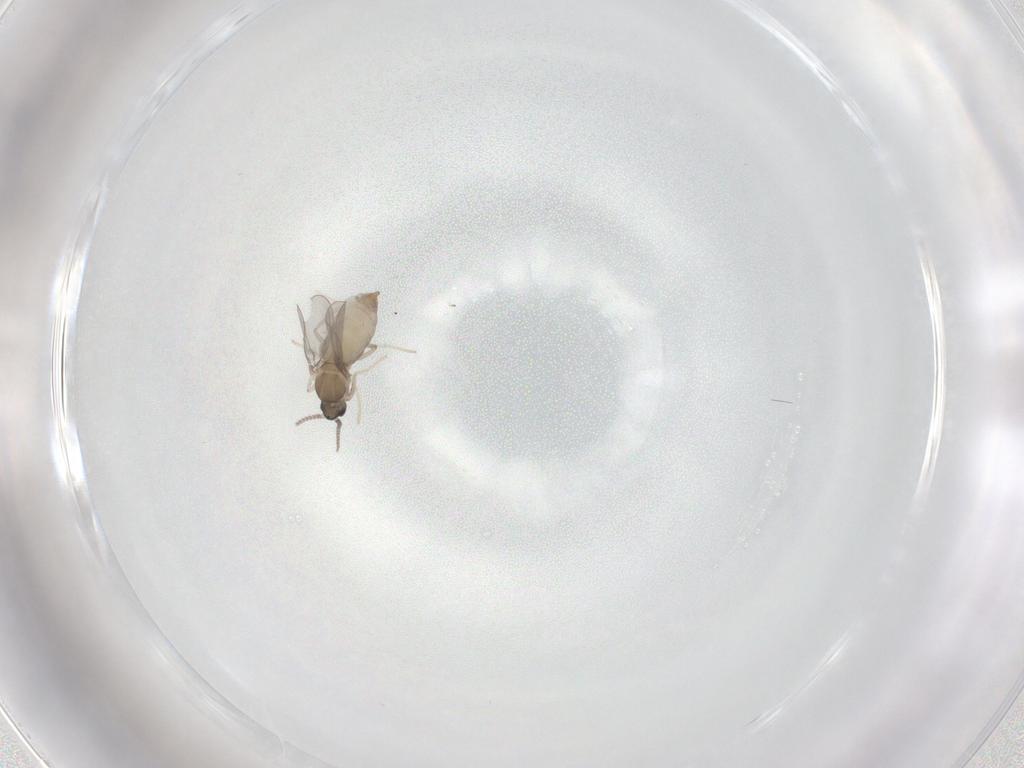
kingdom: Animalia
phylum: Arthropoda
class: Insecta
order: Diptera
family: Cecidomyiidae
